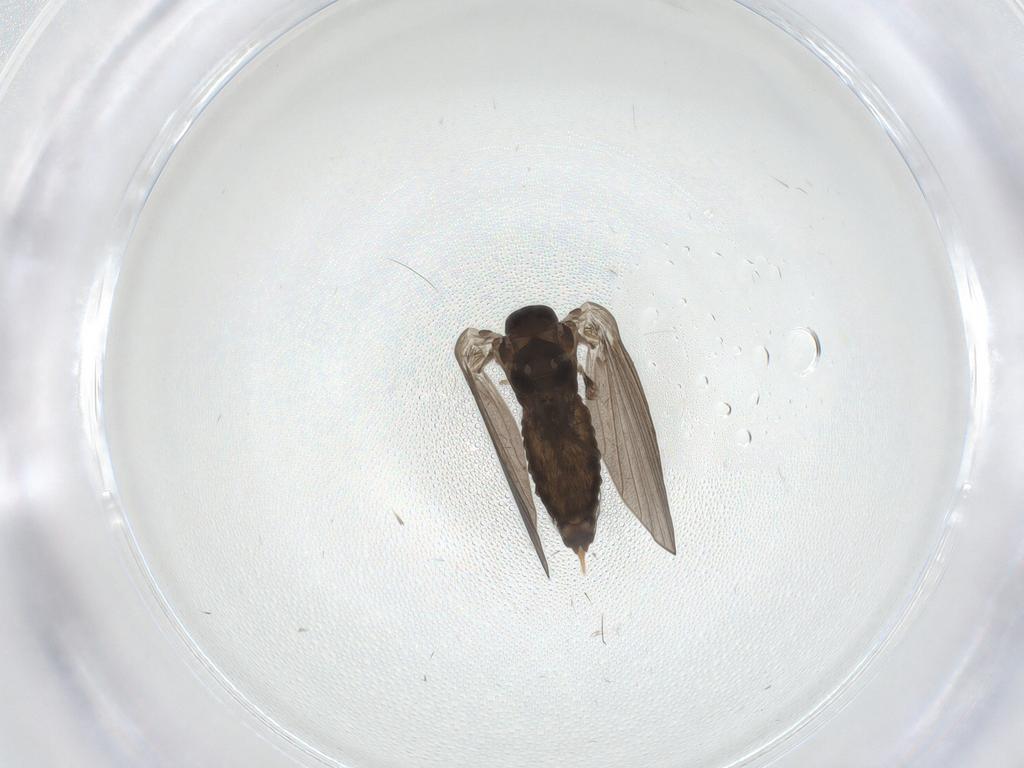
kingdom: Animalia
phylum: Arthropoda
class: Insecta
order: Diptera
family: Psychodidae
